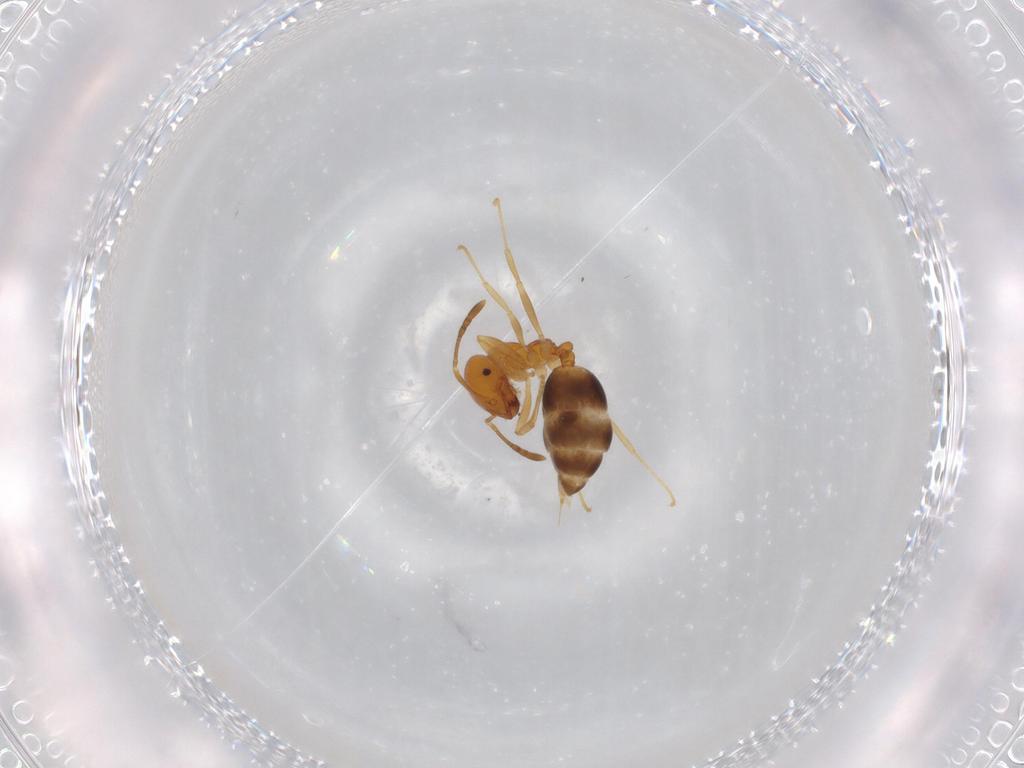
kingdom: Animalia
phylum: Arthropoda
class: Insecta
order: Hymenoptera
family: Formicidae
